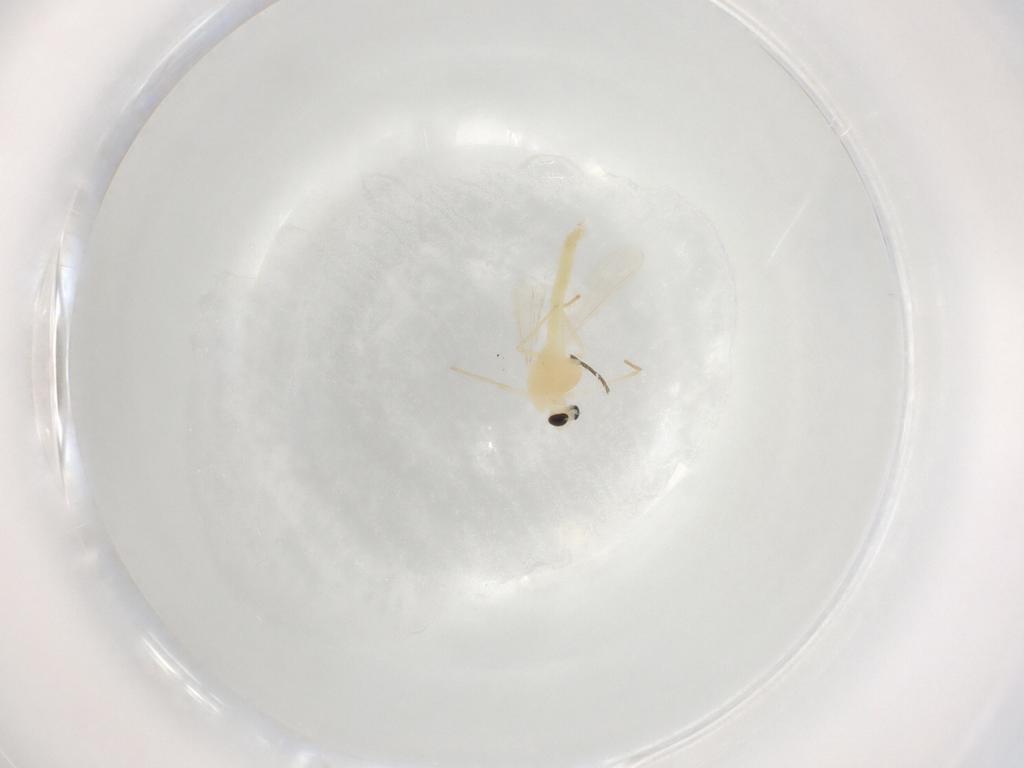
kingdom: Animalia
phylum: Arthropoda
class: Insecta
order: Diptera
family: Chironomidae
